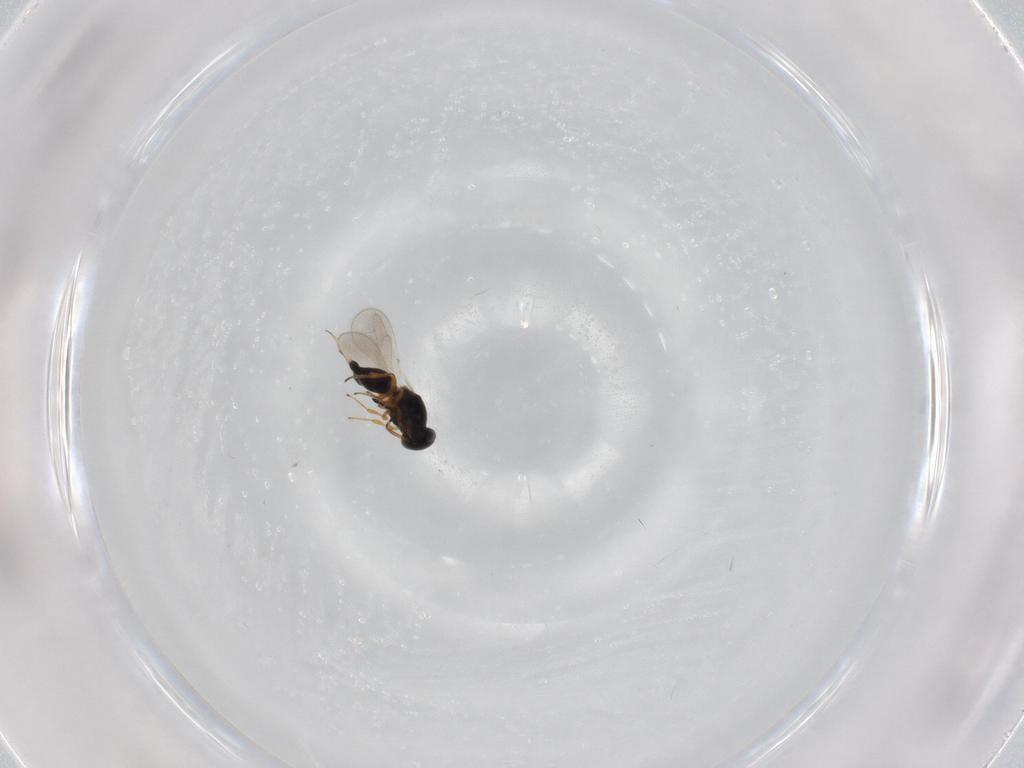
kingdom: Animalia
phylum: Arthropoda
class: Insecta
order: Hymenoptera
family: Platygastridae
